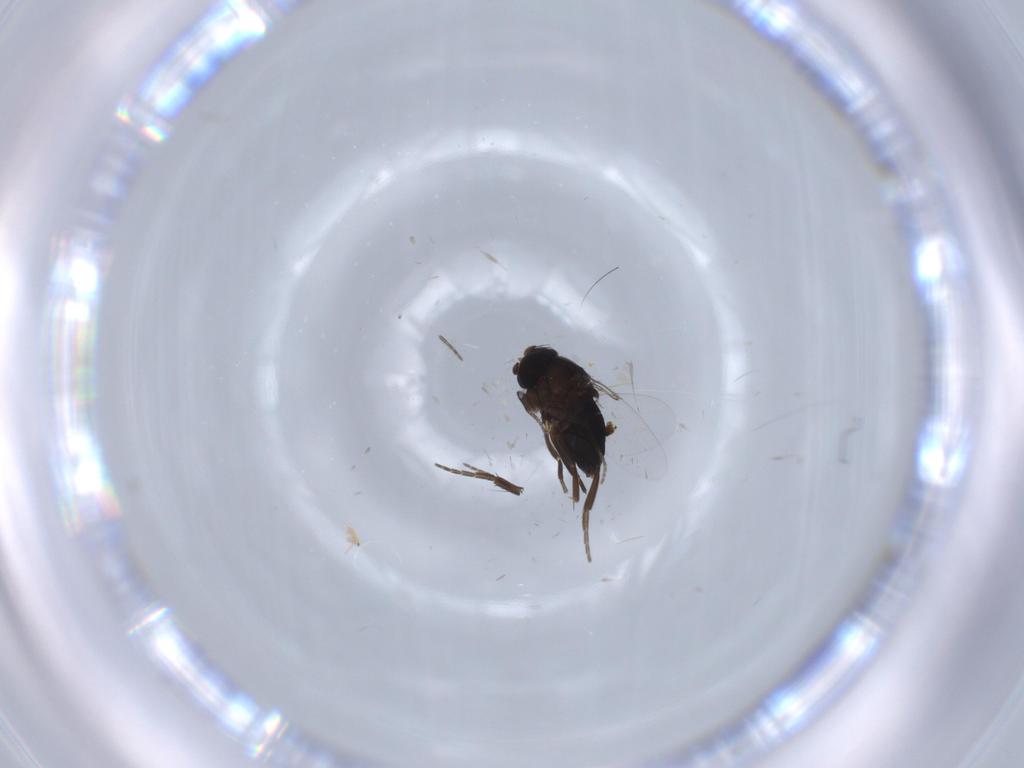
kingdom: Animalia
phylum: Arthropoda
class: Insecta
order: Diptera
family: Phoridae
